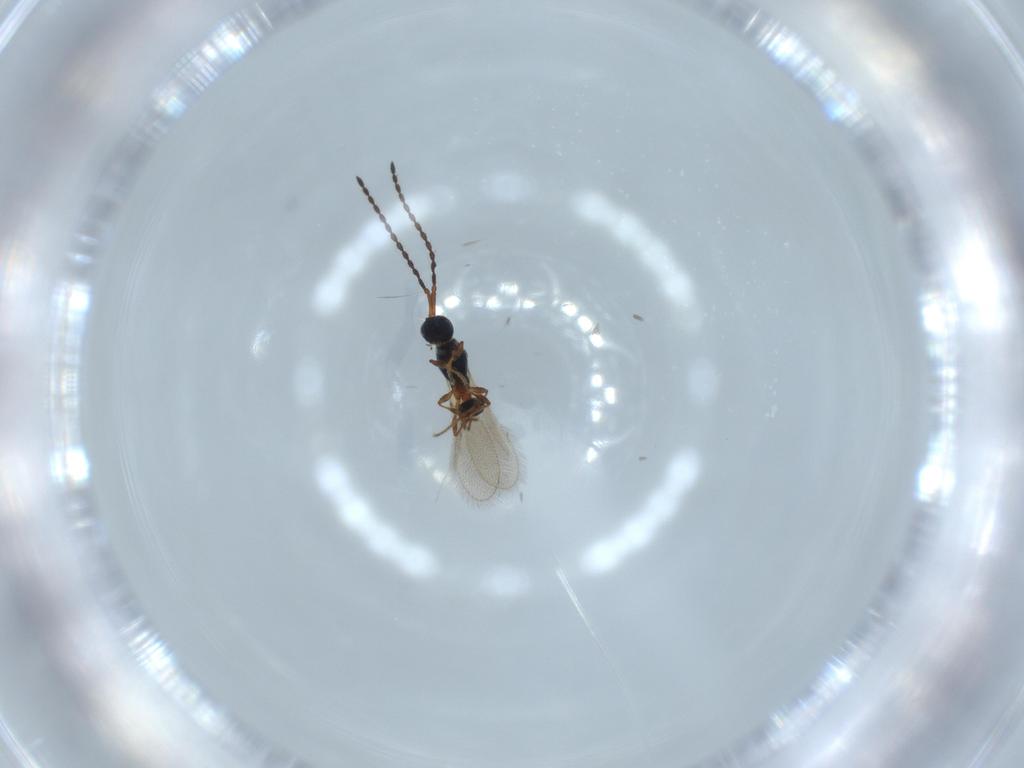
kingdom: Animalia
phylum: Arthropoda
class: Insecta
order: Hymenoptera
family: Diapriidae
